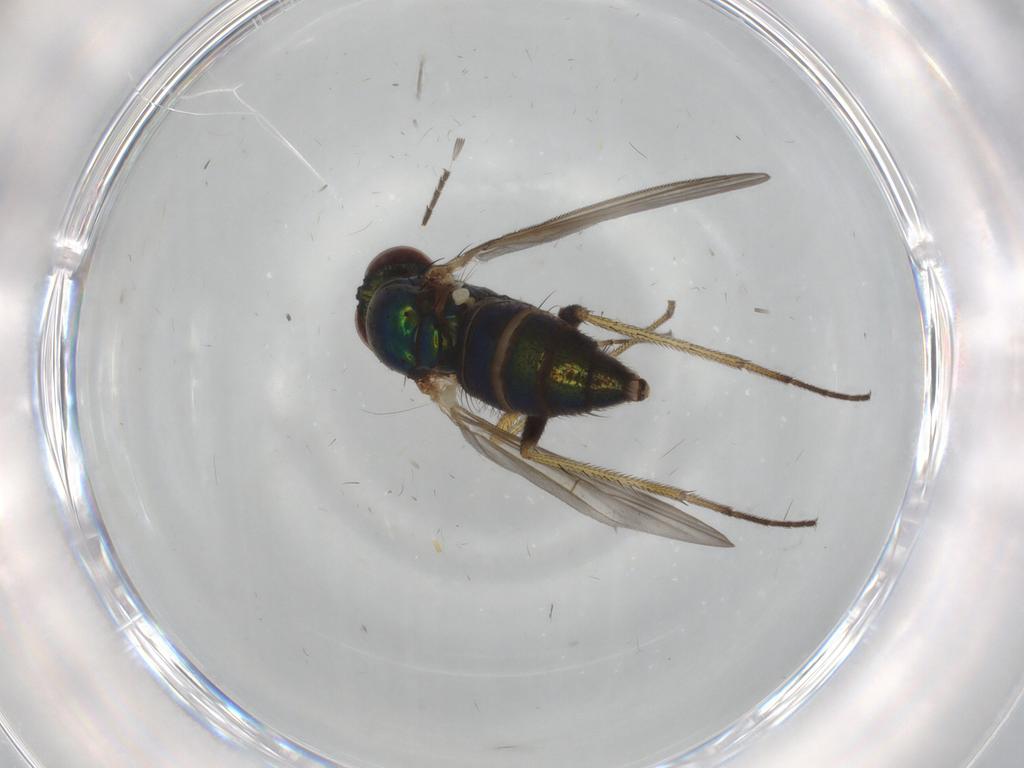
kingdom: Animalia
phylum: Arthropoda
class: Insecta
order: Diptera
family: Dolichopodidae
